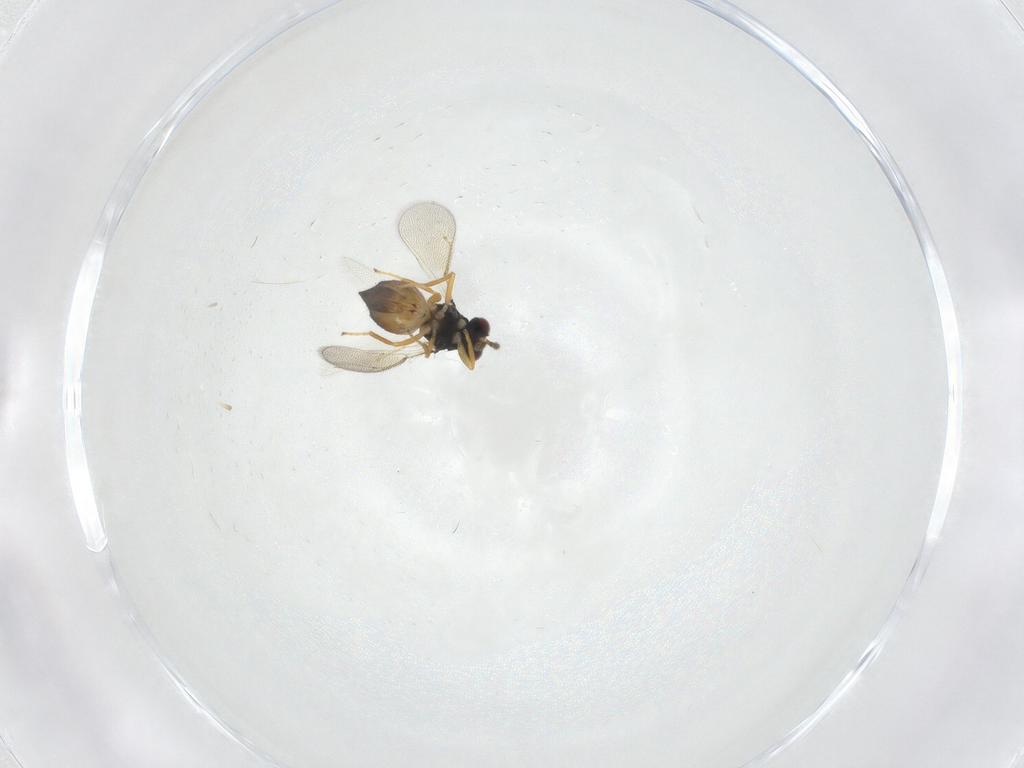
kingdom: Animalia
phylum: Arthropoda
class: Insecta
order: Hymenoptera
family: Eulophidae
